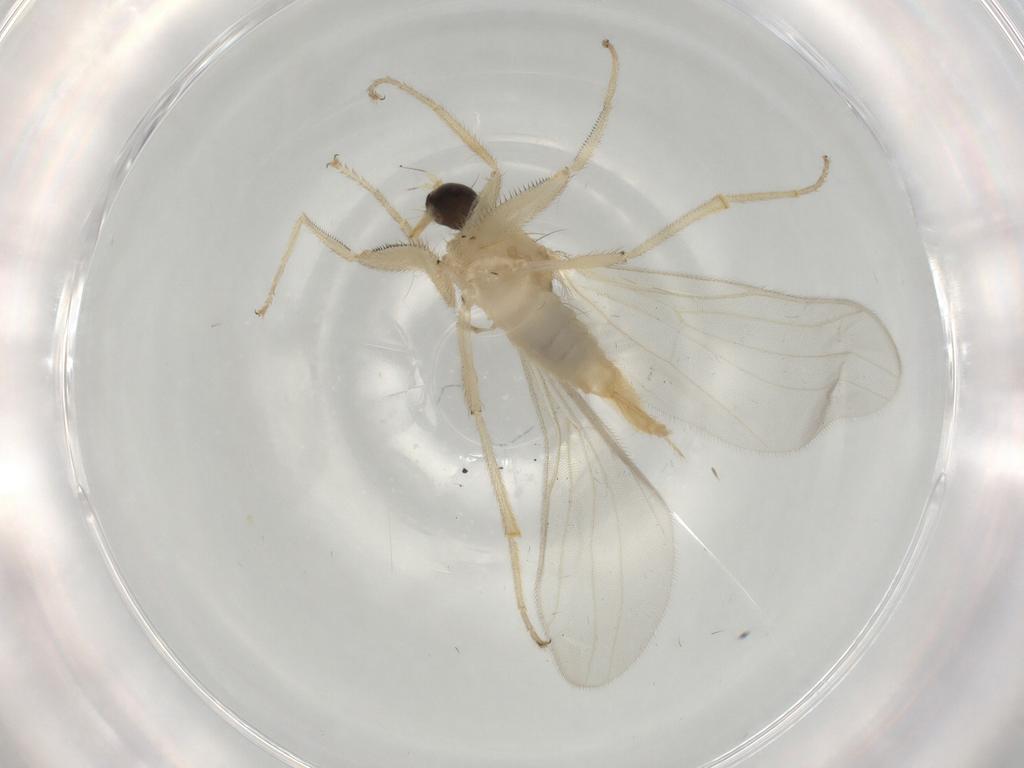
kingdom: Animalia
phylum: Arthropoda
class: Insecta
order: Diptera
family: Hybotidae
